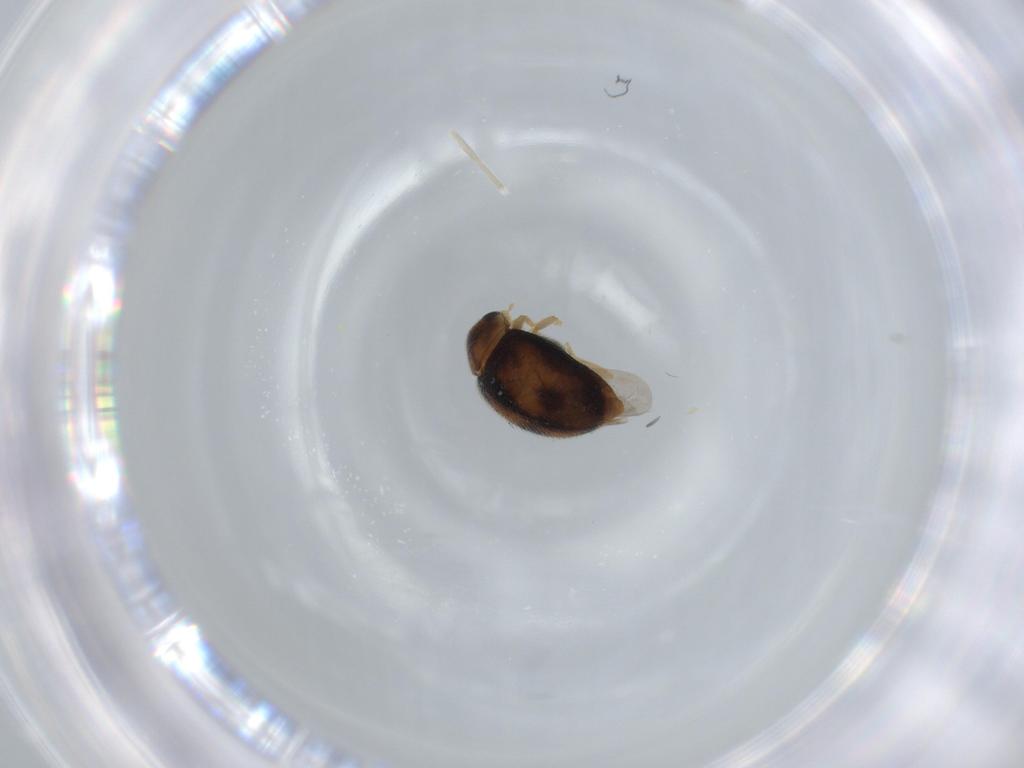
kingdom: Animalia
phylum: Arthropoda
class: Insecta
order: Coleoptera
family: Coccinellidae
